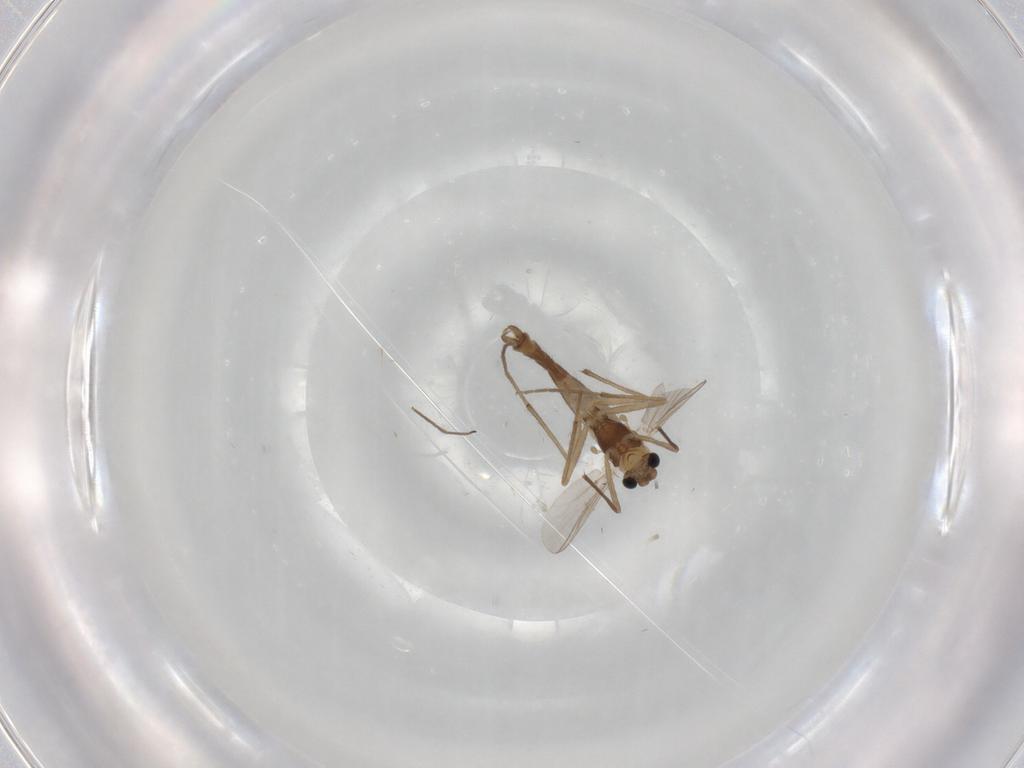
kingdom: Animalia
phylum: Arthropoda
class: Insecta
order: Diptera
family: Chironomidae
